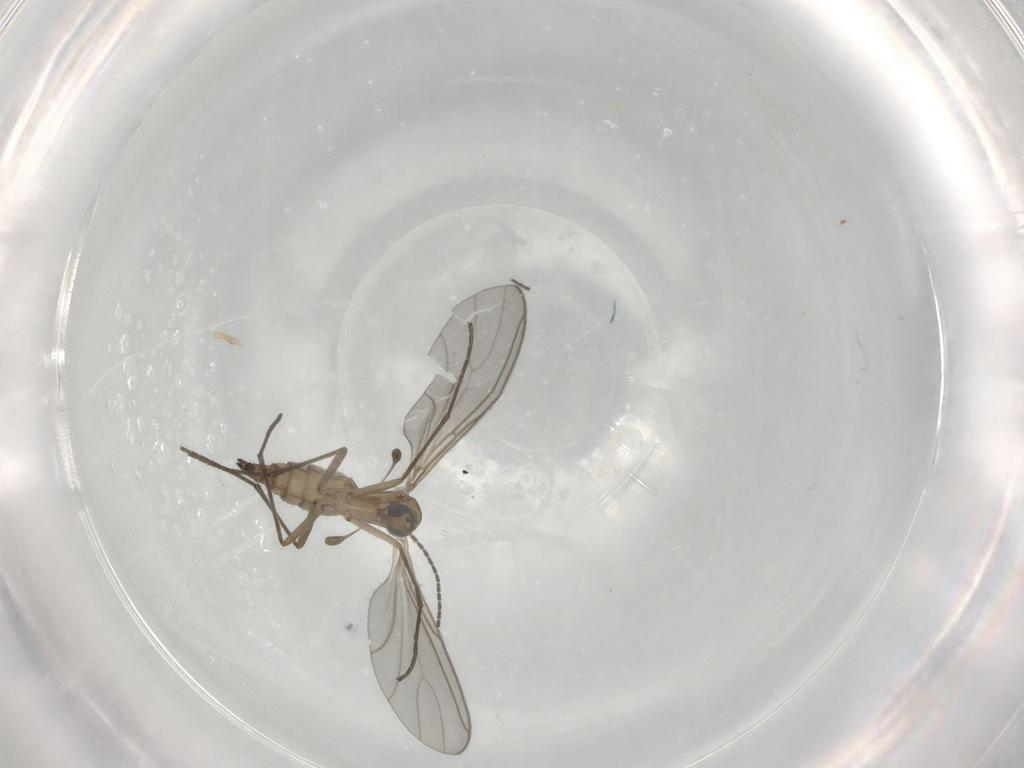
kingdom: Animalia
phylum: Arthropoda
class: Insecta
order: Diptera
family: Sciaridae
